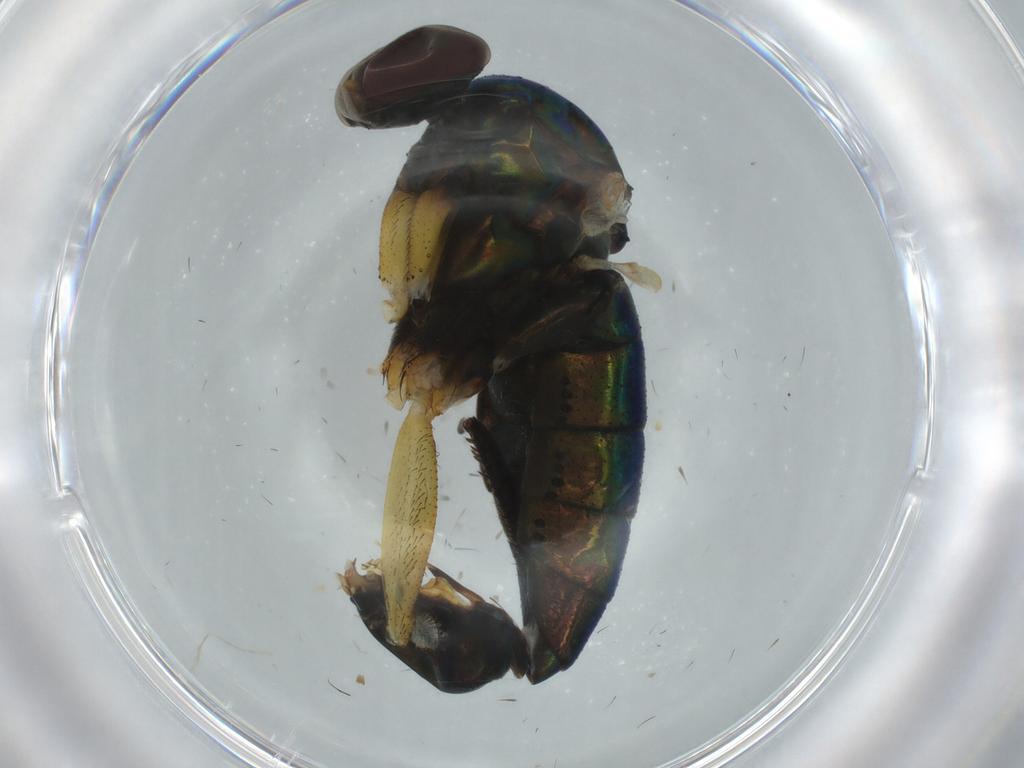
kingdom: Animalia
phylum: Arthropoda
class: Insecta
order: Diptera
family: Empididae
